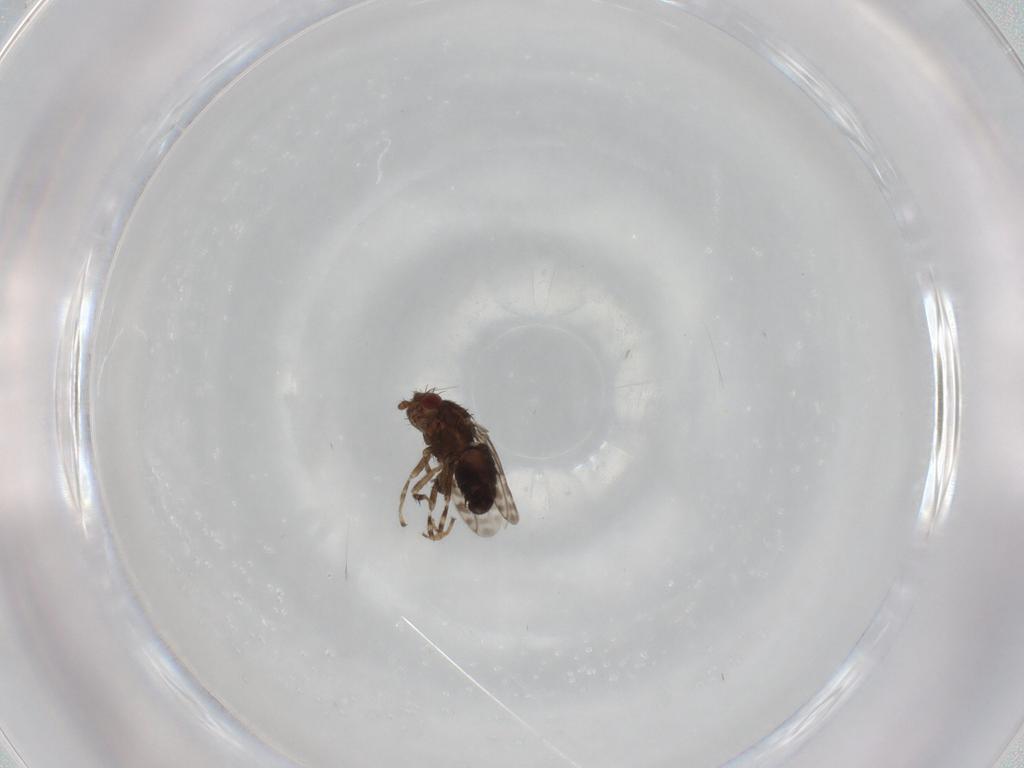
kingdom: Animalia
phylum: Arthropoda
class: Insecta
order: Diptera
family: Sphaeroceridae
